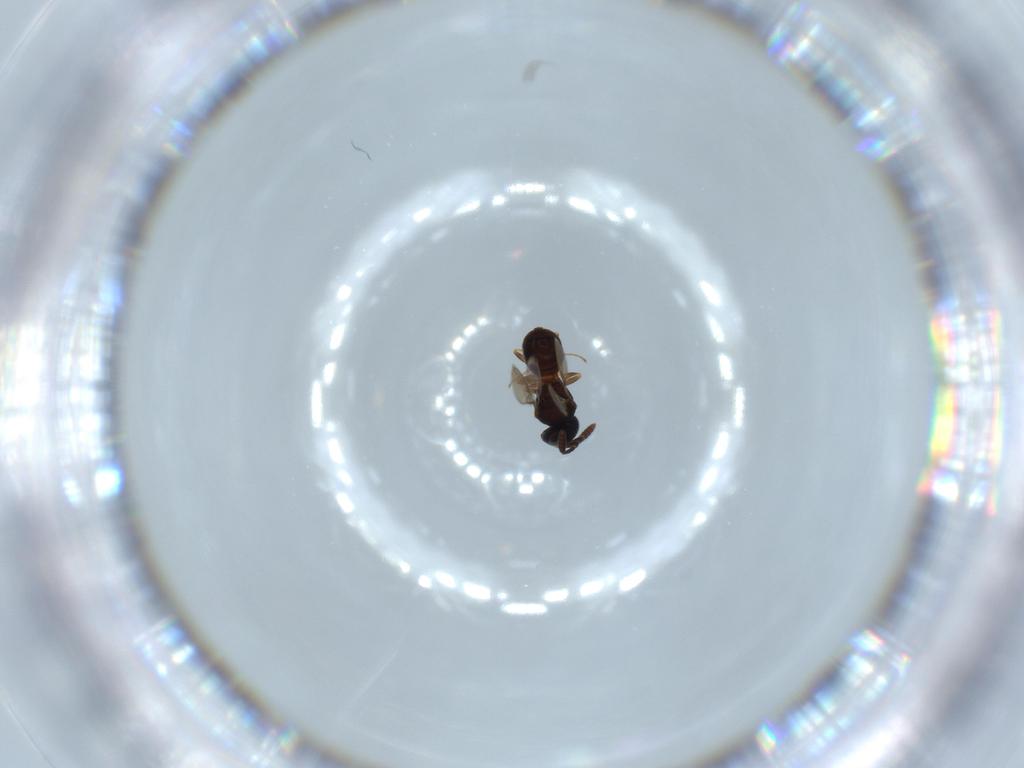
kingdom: Animalia
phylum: Arthropoda
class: Insecta
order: Hymenoptera
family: Scelionidae
